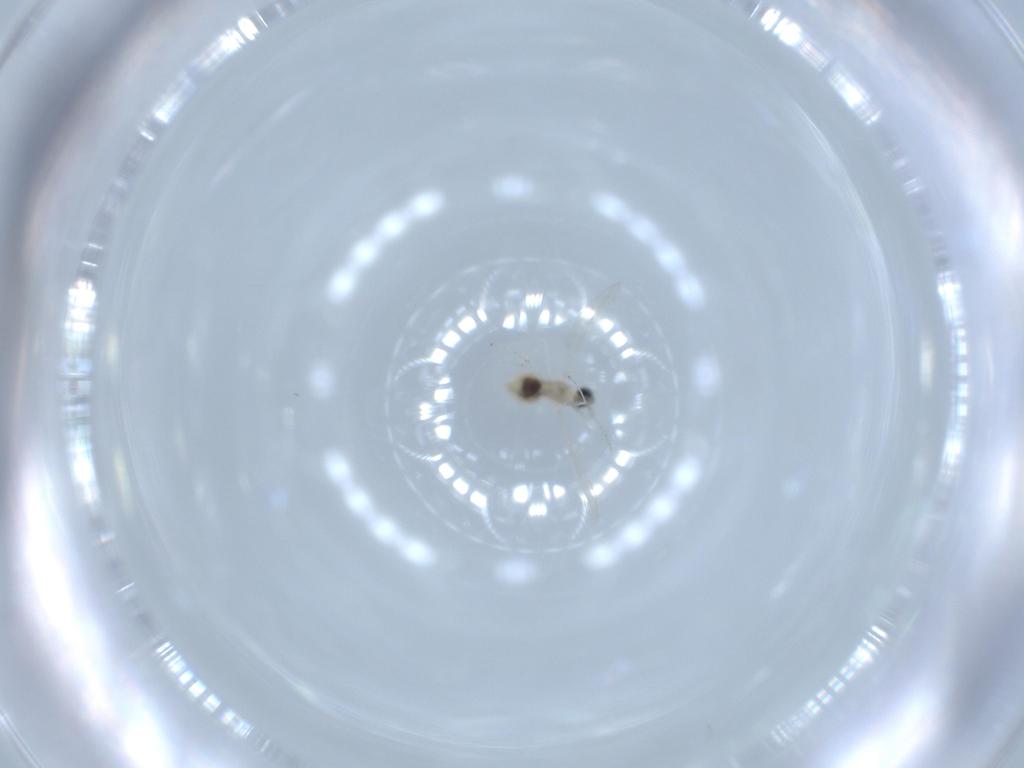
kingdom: Animalia
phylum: Arthropoda
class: Insecta
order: Diptera
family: Cecidomyiidae
